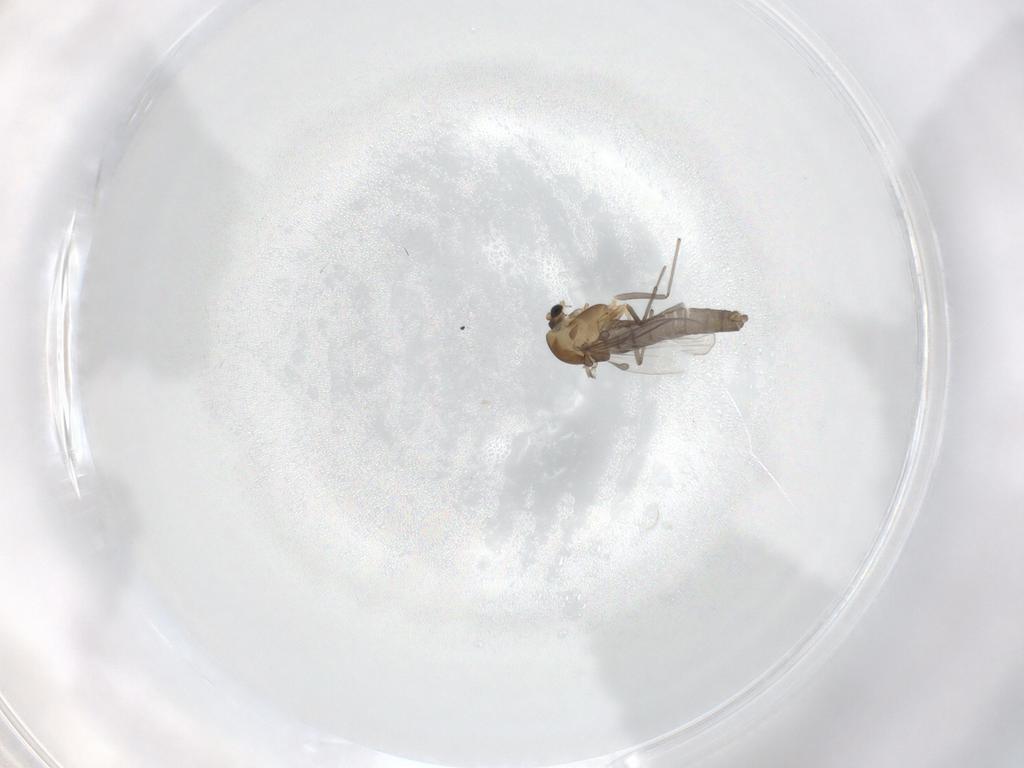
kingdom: Animalia
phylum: Arthropoda
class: Insecta
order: Diptera
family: Chironomidae
